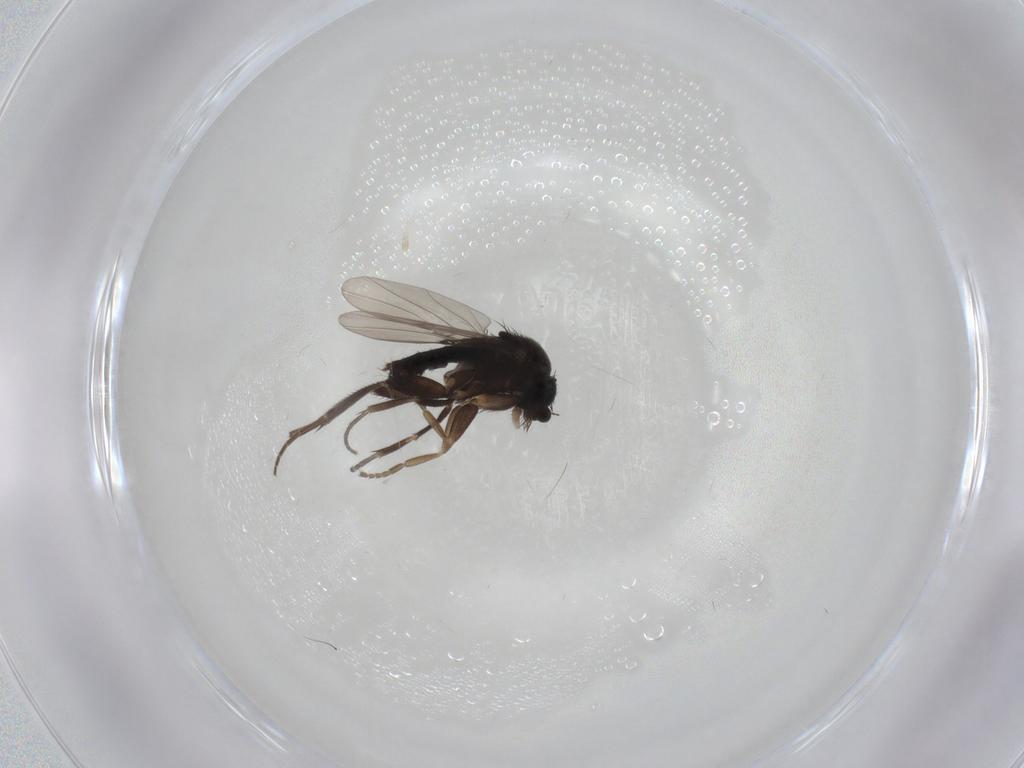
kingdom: Animalia
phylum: Arthropoda
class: Insecta
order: Diptera
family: Phoridae
